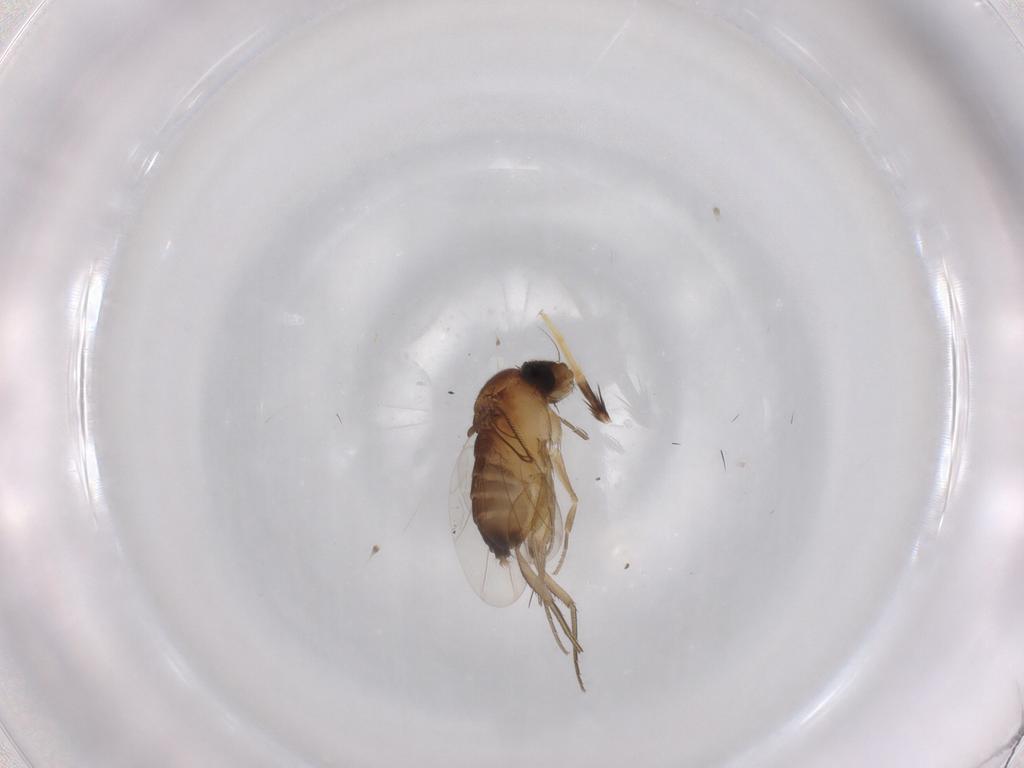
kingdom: Animalia
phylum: Arthropoda
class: Insecta
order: Diptera
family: Phoridae
